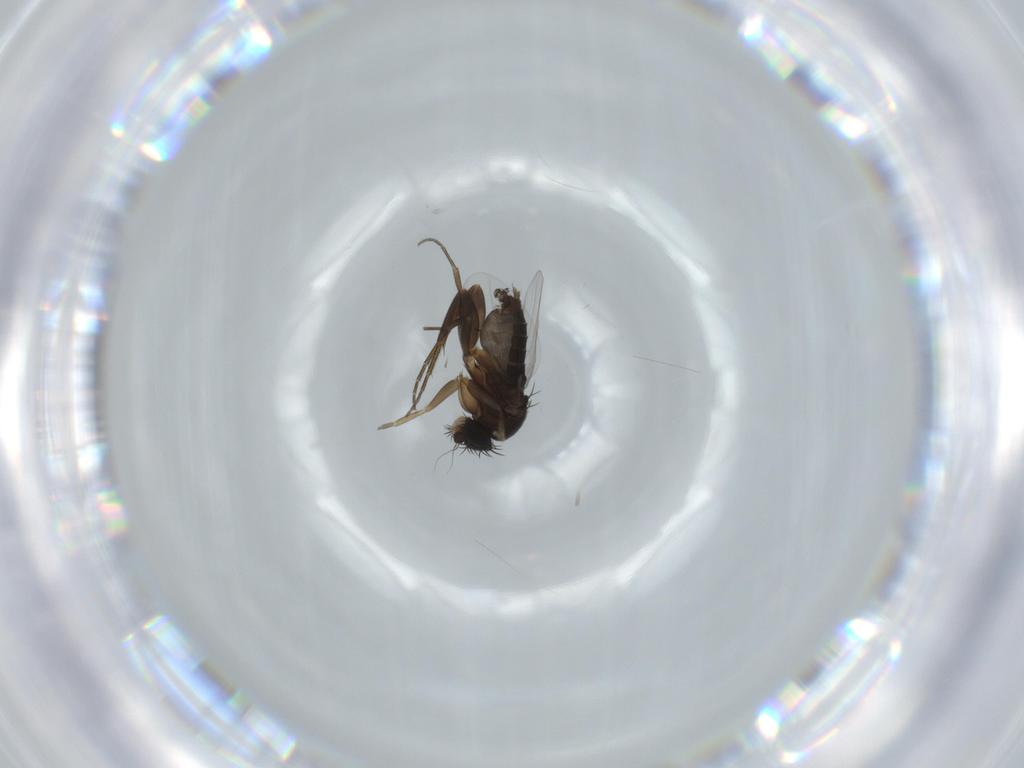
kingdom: Animalia
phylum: Arthropoda
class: Insecta
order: Diptera
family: Phoridae
